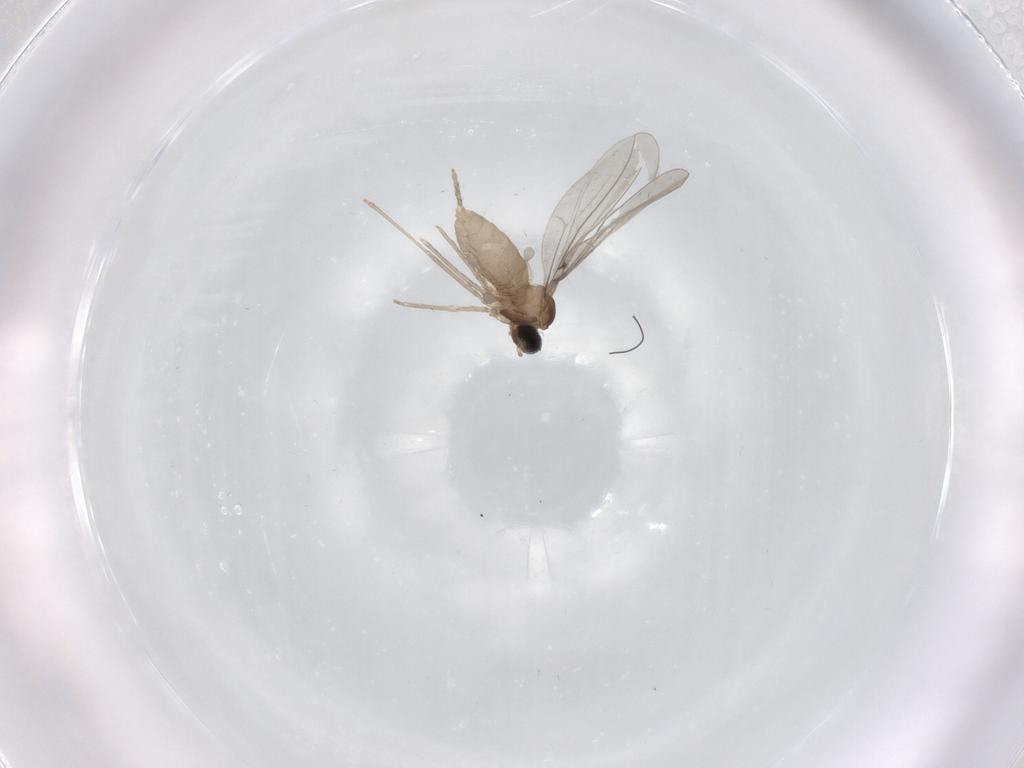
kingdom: Animalia
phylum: Arthropoda
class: Insecta
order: Diptera
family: Cecidomyiidae
